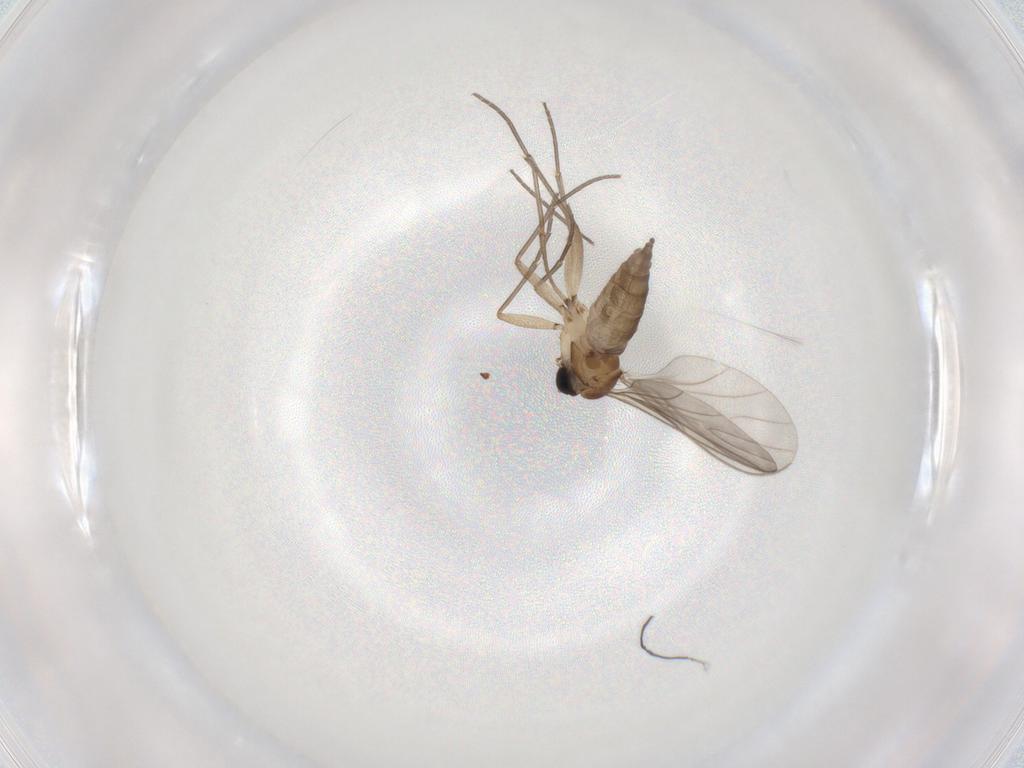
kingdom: Animalia
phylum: Arthropoda
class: Insecta
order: Diptera
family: Sciaridae
